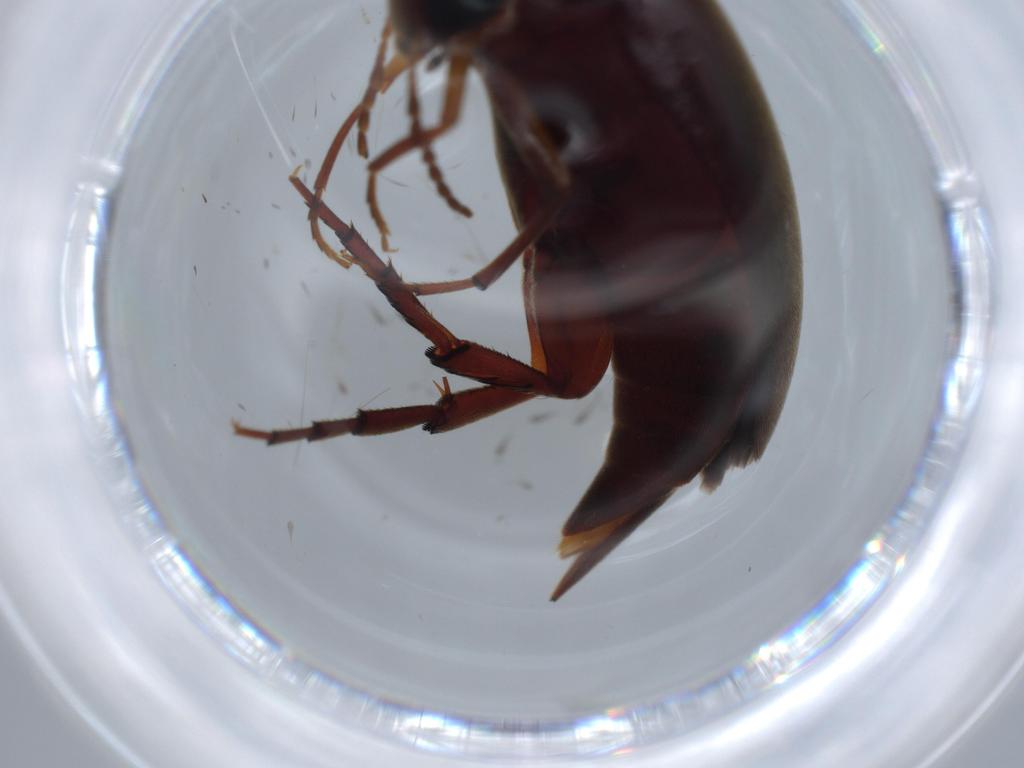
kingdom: Animalia
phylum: Arthropoda
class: Insecta
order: Coleoptera
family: Mordellidae
